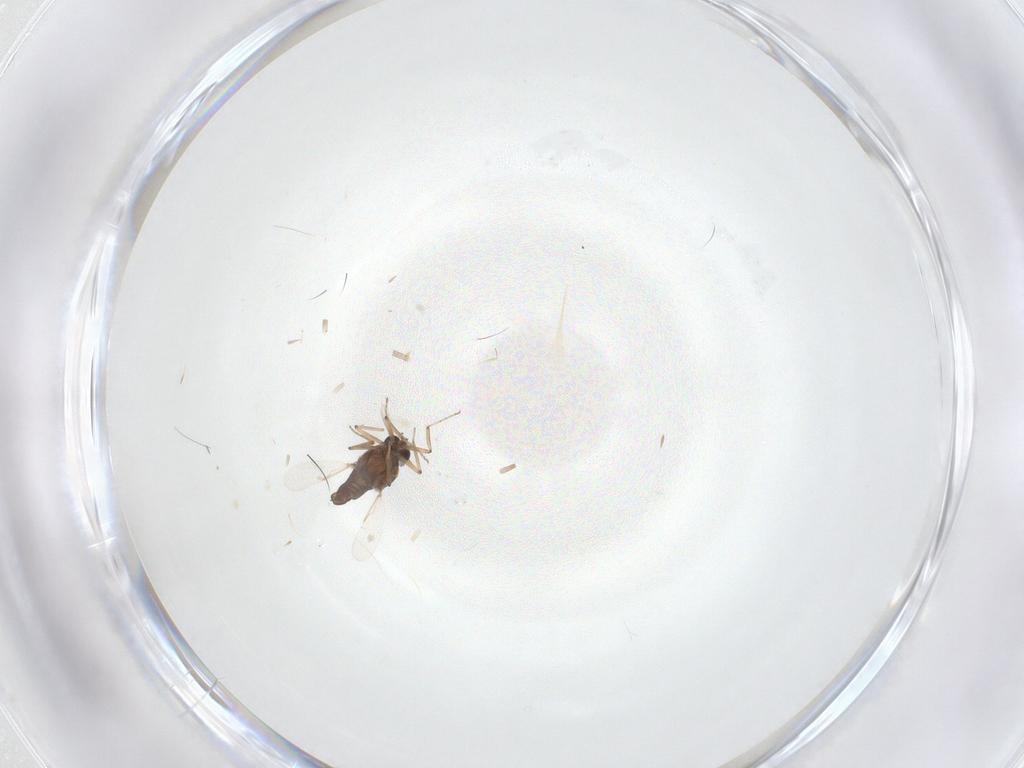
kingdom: Animalia
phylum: Arthropoda
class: Insecta
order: Diptera
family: Ceratopogonidae
